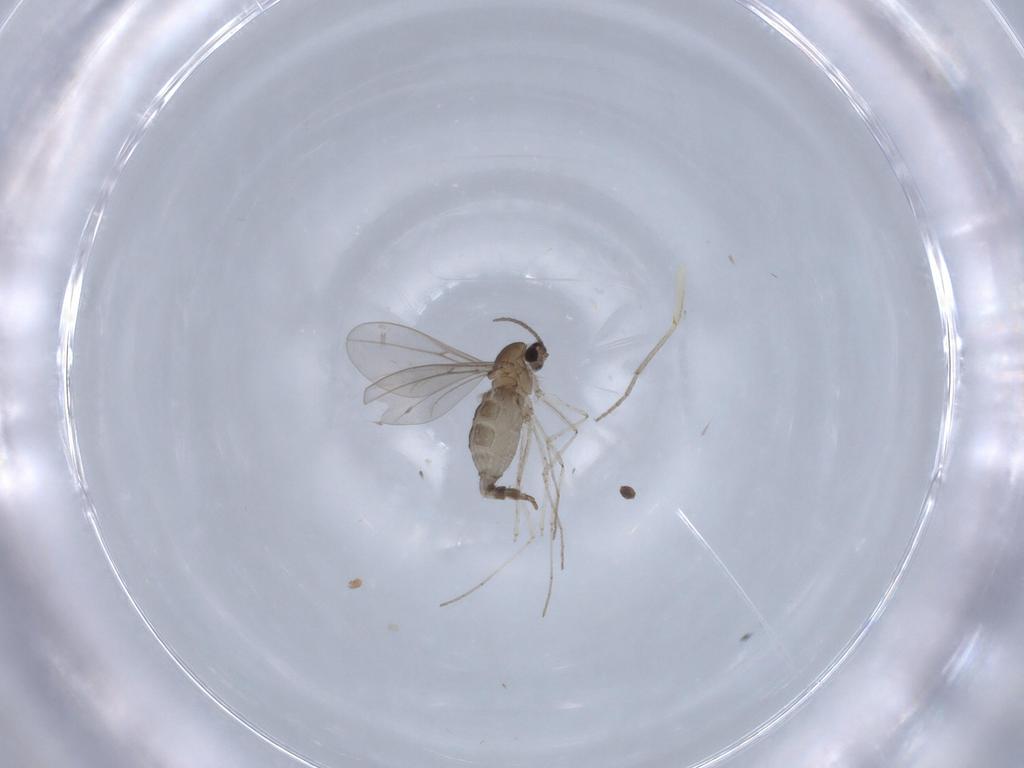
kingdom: Animalia
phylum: Arthropoda
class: Insecta
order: Diptera
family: Cecidomyiidae
